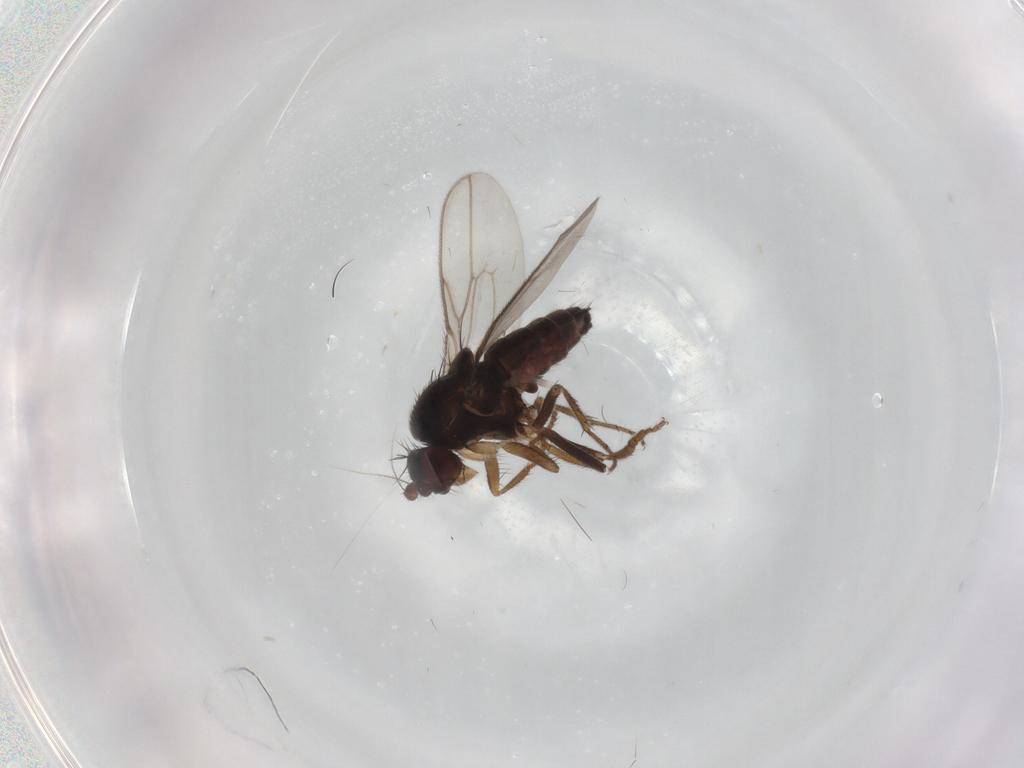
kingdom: Animalia
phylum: Arthropoda
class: Insecta
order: Diptera
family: Sphaeroceridae
